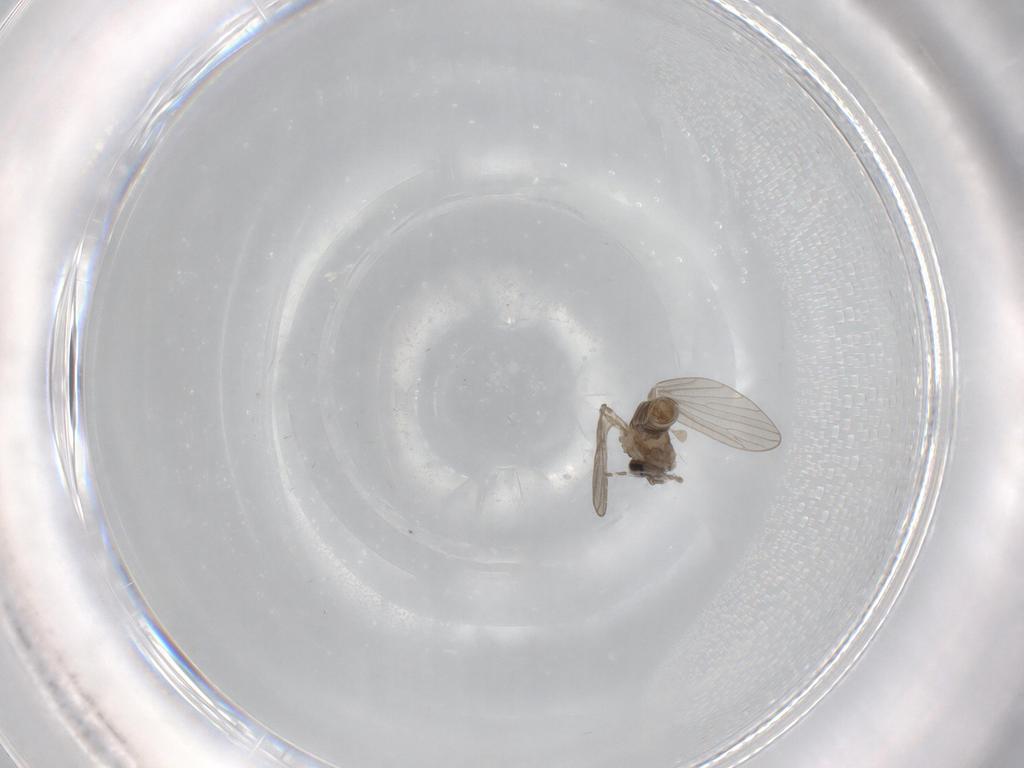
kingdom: Animalia
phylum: Arthropoda
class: Insecta
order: Diptera
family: Psychodidae
